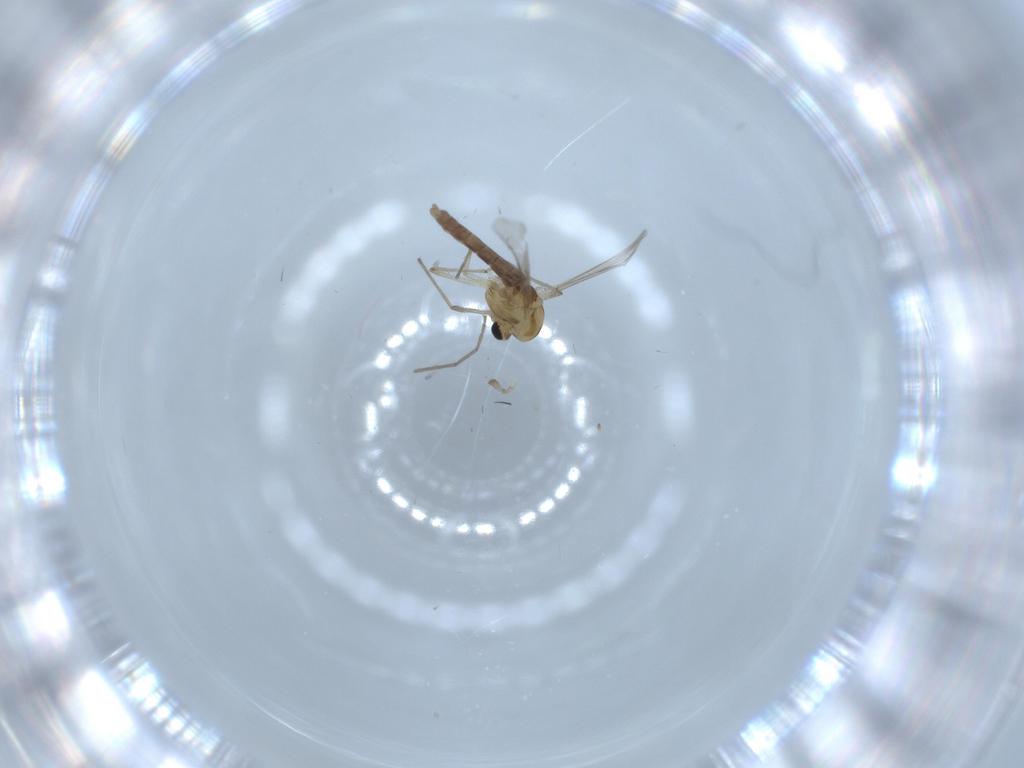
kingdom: Animalia
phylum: Arthropoda
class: Insecta
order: Diptera
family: Chironomidae
